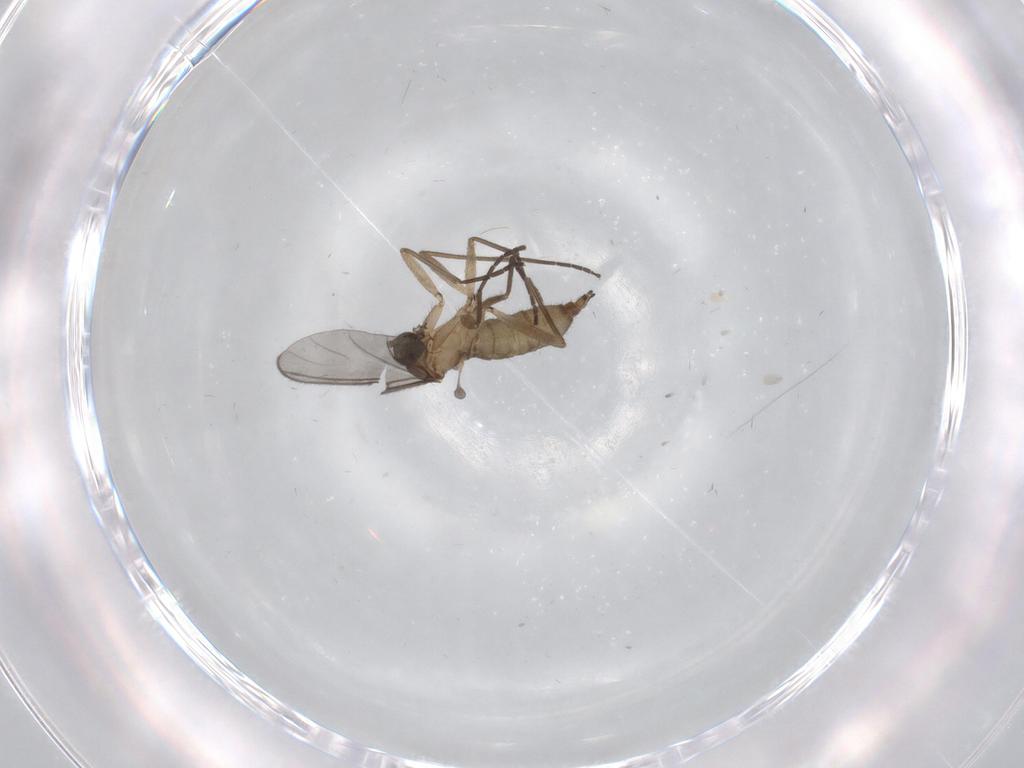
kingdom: Animalia
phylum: Arthropoda
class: Insecta
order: Diptera
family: Sciaridae
